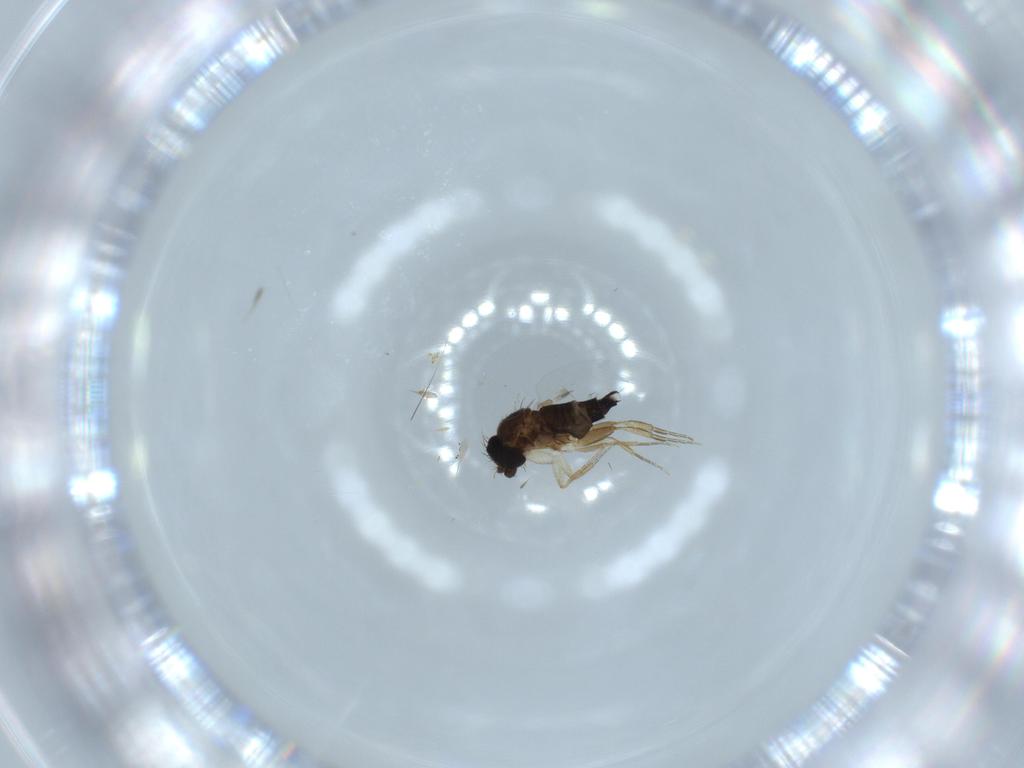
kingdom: Animalia
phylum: Arthropoda
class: Insecta
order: Diptera
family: Phoridae
